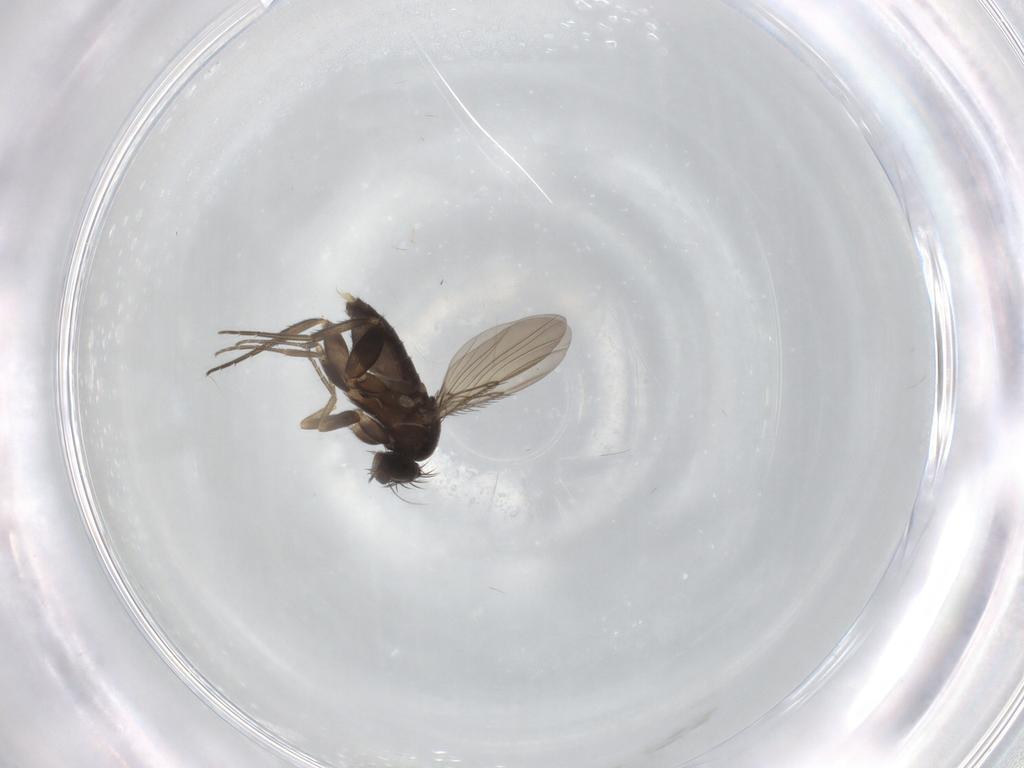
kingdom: Animalia
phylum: Arthropoda
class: Insecta
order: Diptera
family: Phoridae
